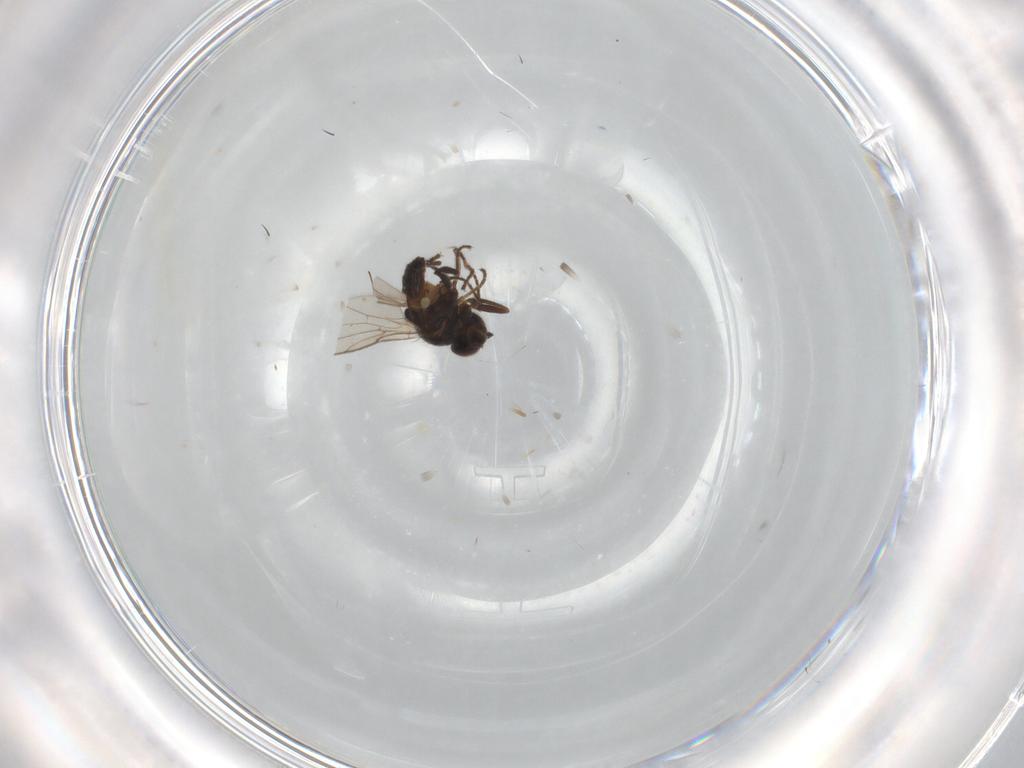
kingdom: Animalia
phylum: Arthropoda
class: Insecta
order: Diptera
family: Chloropidae
